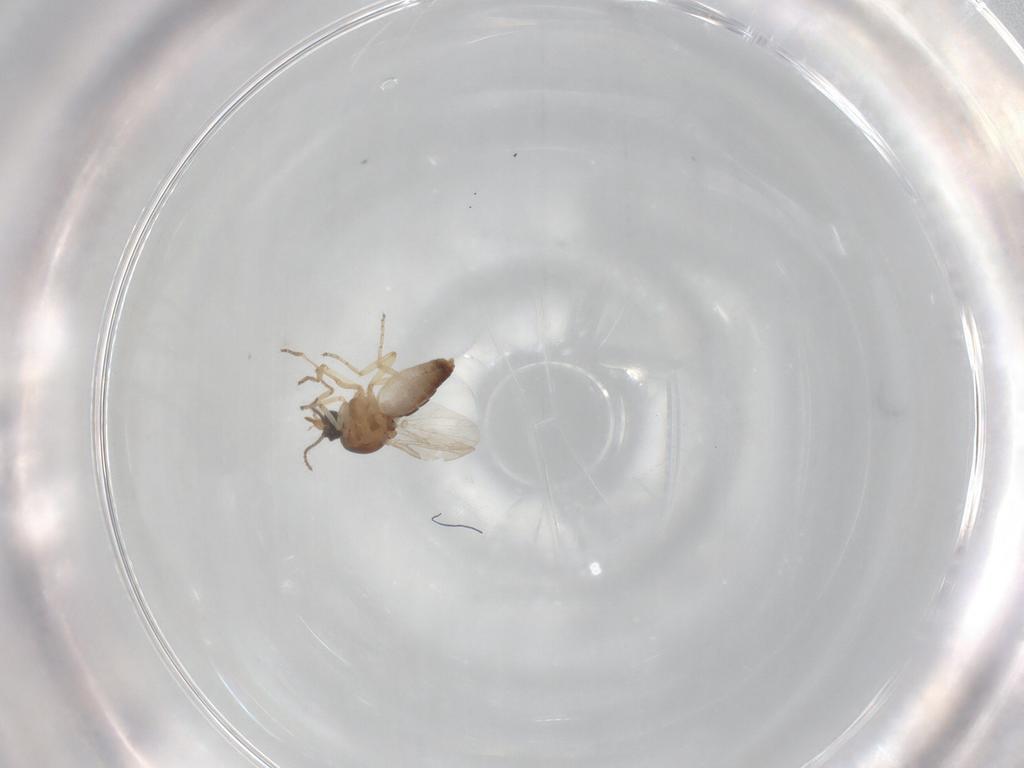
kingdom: Animalia
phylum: Arthropoda
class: Insecta
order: Diptera
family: Ceratopogonidae
